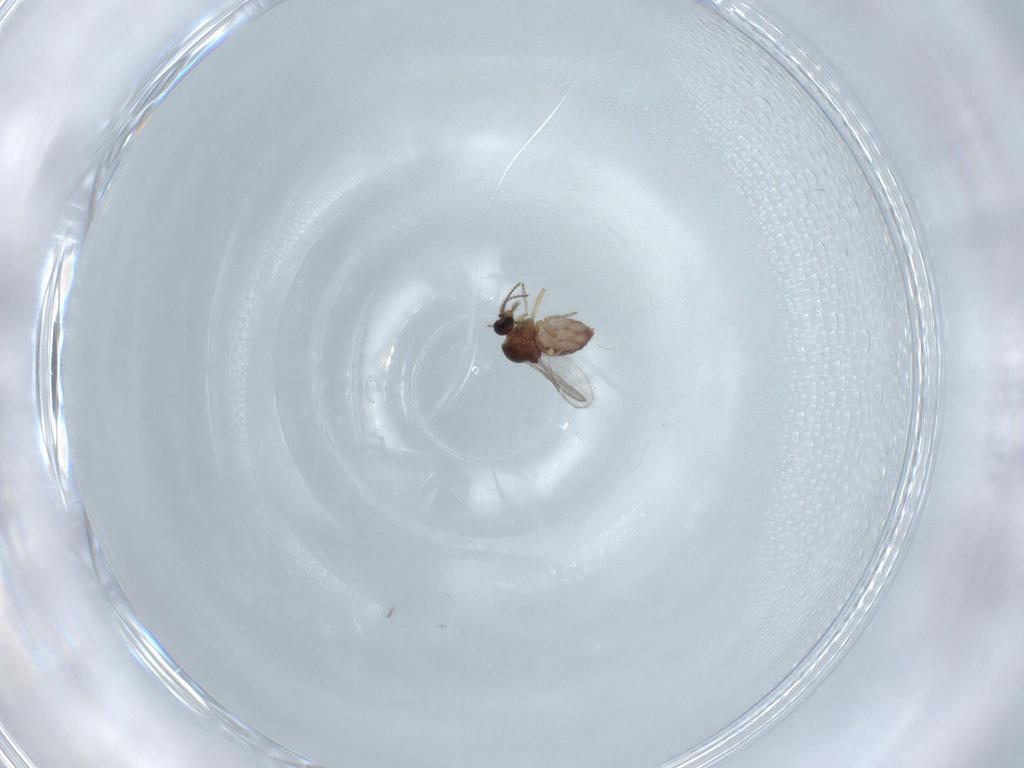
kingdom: Animalia
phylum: Arthropoda
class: Insecta
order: Diptera
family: Ceratopogonidae
